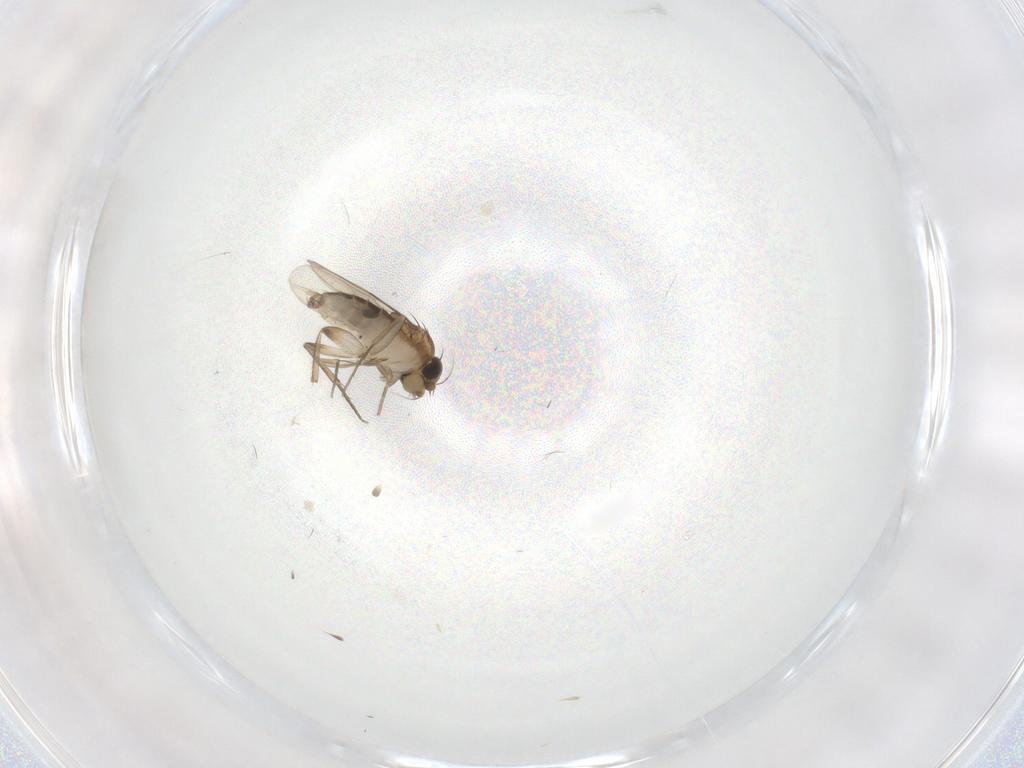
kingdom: Animalia
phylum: Arthropoda
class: Insecta
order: Diptera
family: Phoridae
